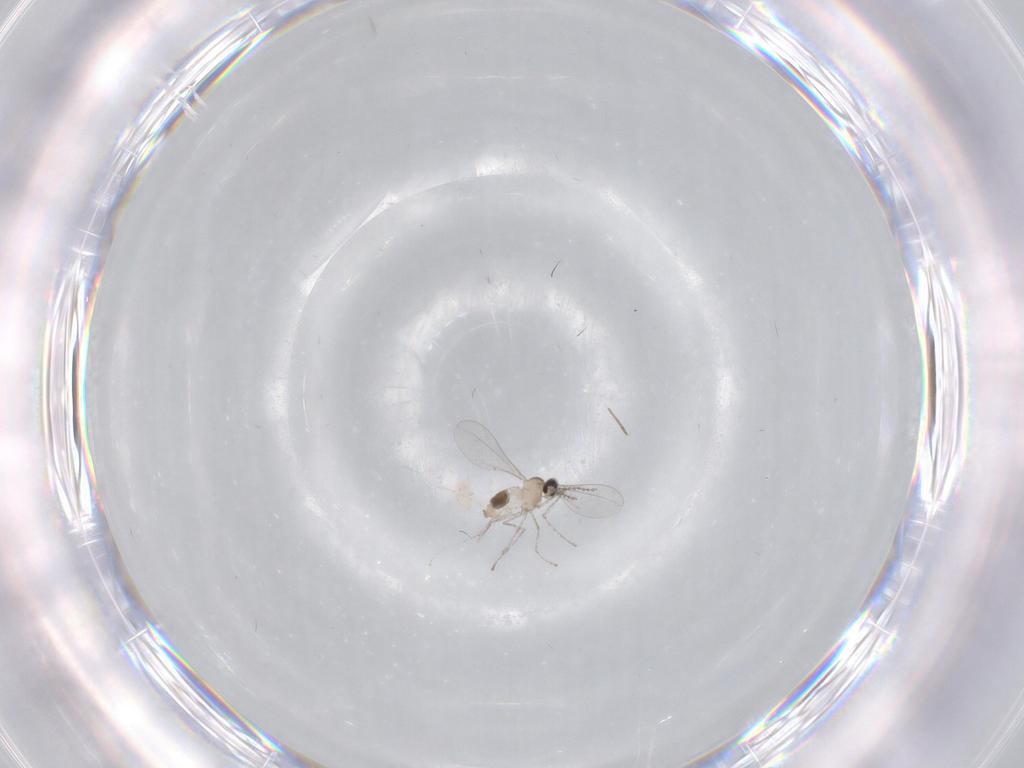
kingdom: Animalia
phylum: Arthropoda
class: Insecta
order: Diptera
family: Cecidomyiidae
